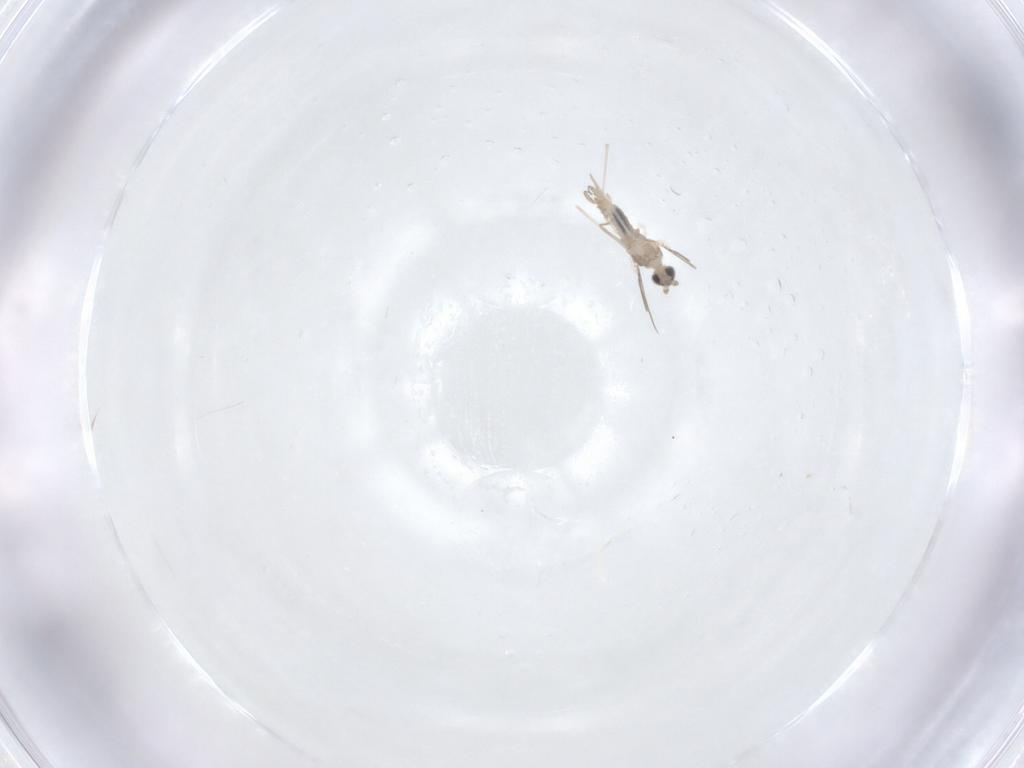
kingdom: Animalia
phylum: Arthropoda
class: Insecta
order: Diptera
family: Cecidomyiidae
